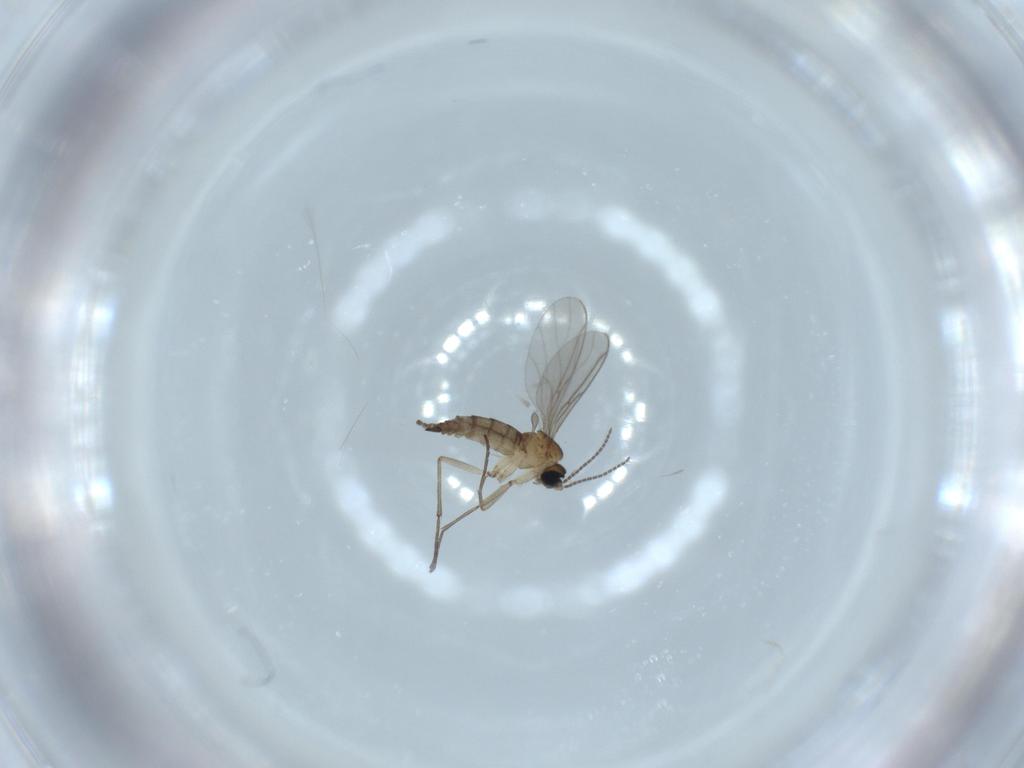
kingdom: Animalia
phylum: Arthropoda
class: Insecta
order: Diptera
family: Sciaridae
